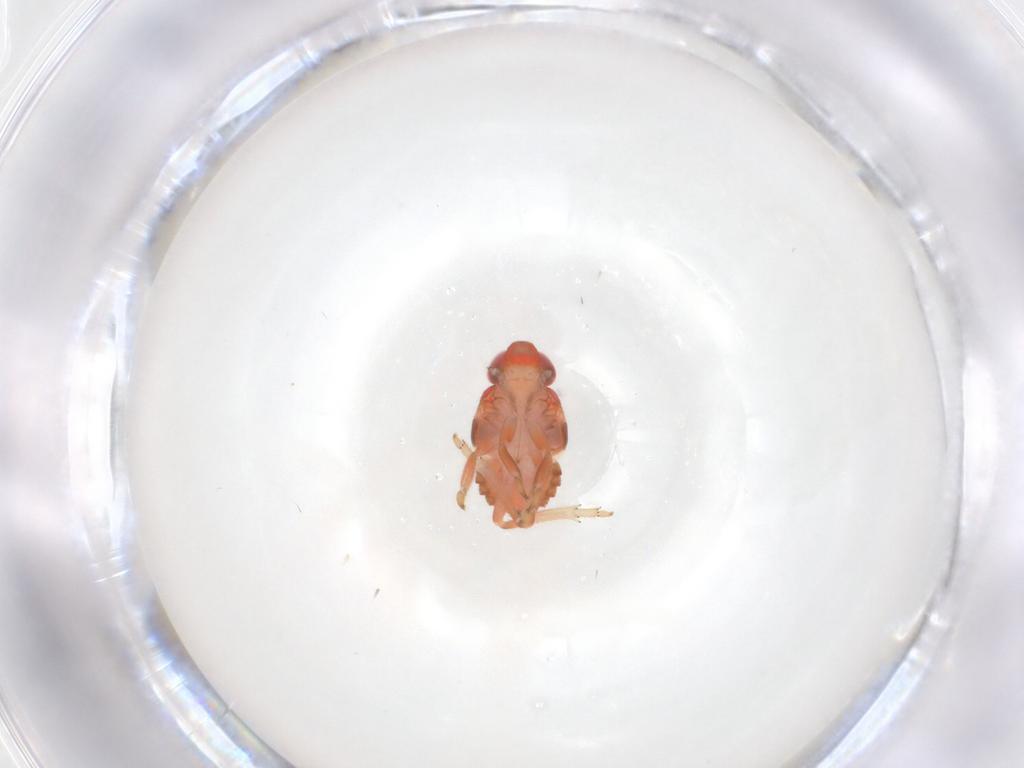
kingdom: Animalia
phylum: Arthropoda
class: Insecta
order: Hemiptera
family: Issidae
